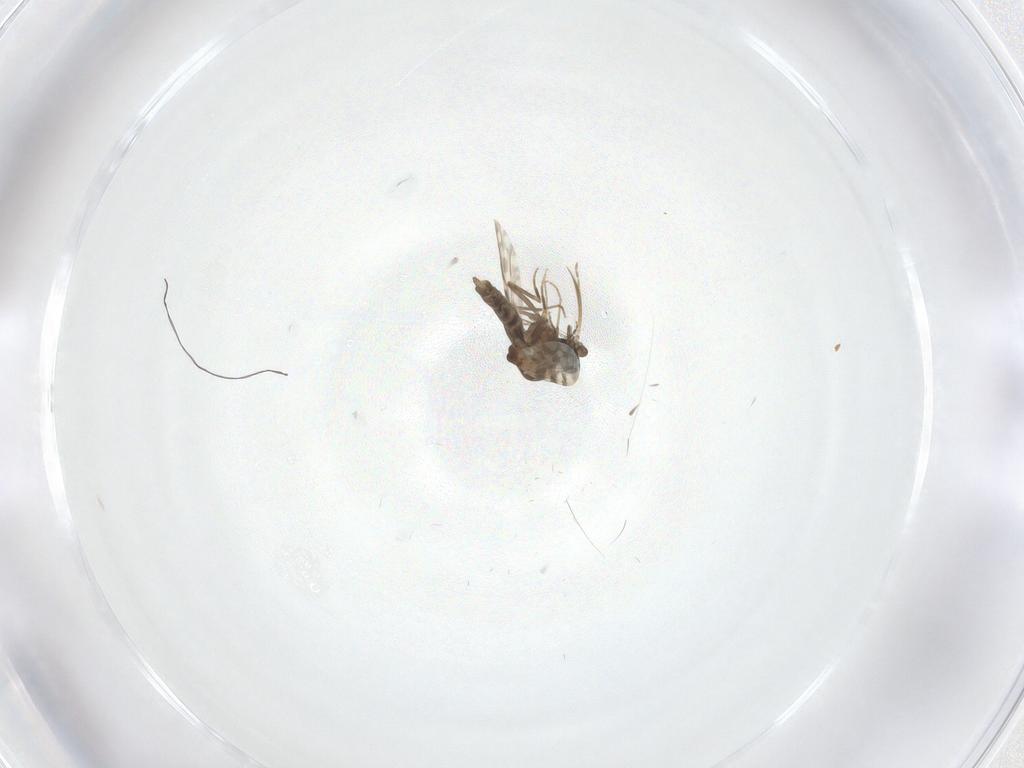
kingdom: Animalia
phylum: Arthropoda
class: Insecta
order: Diptera
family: Ceratopogonidae
